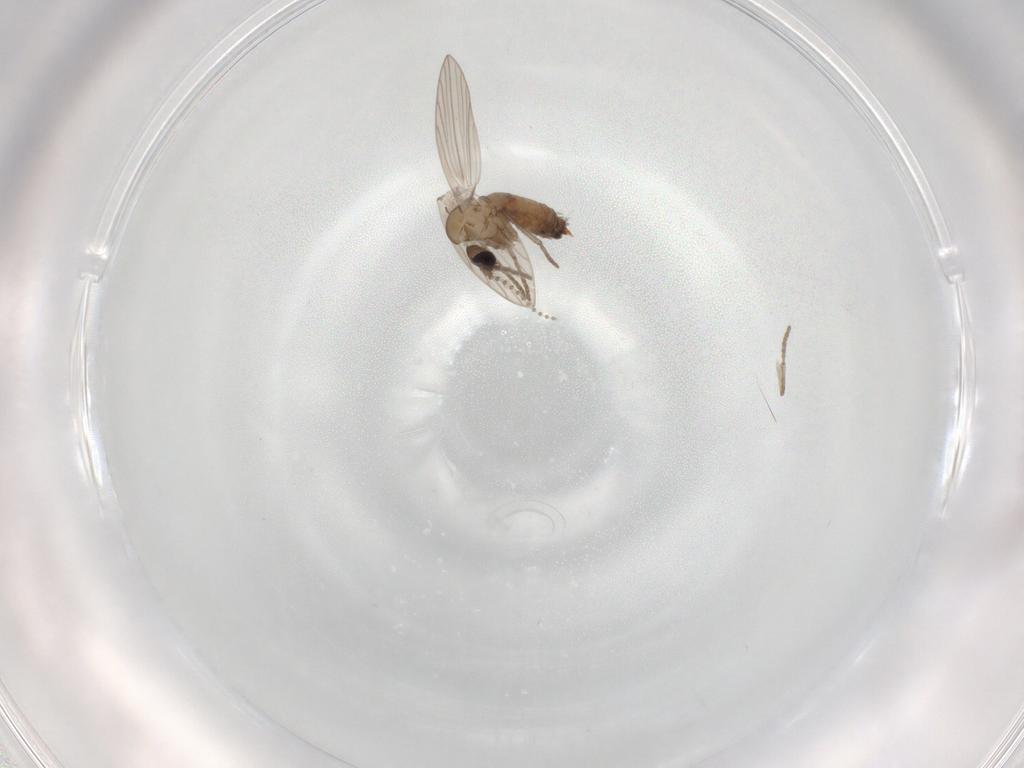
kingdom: Animalia
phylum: Arthropoda
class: Insecta
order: Diptera
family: Psychodidae
